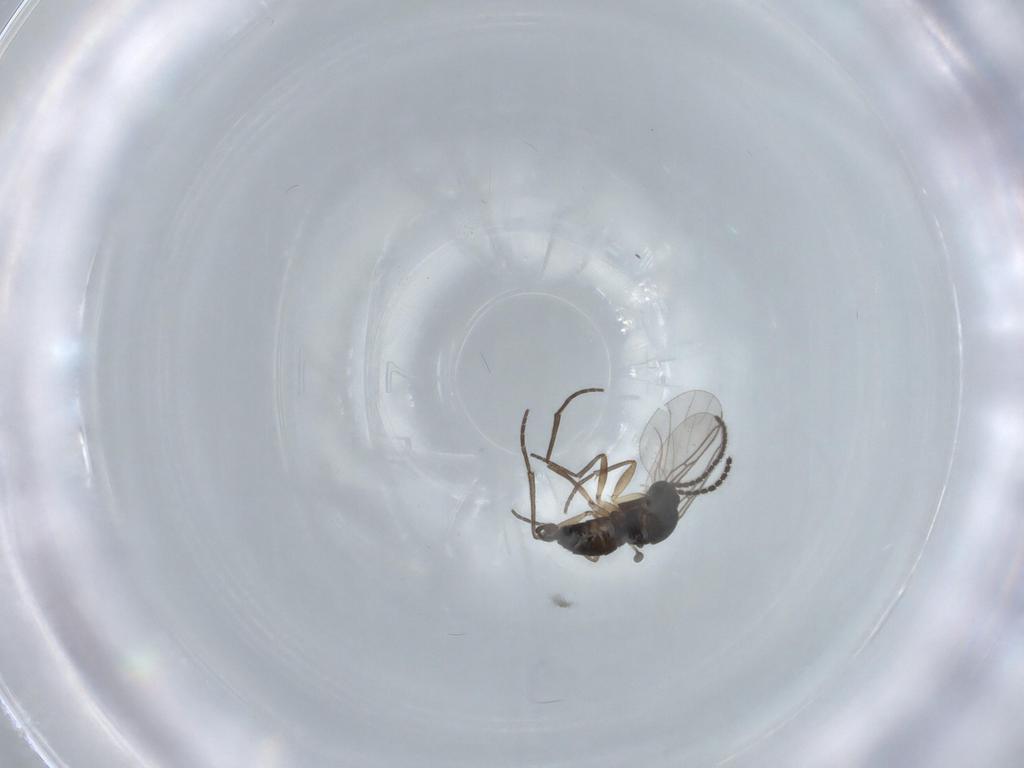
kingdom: Animalia
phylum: Arthropoda
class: Insecta
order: Diptera
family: Sciaridae
